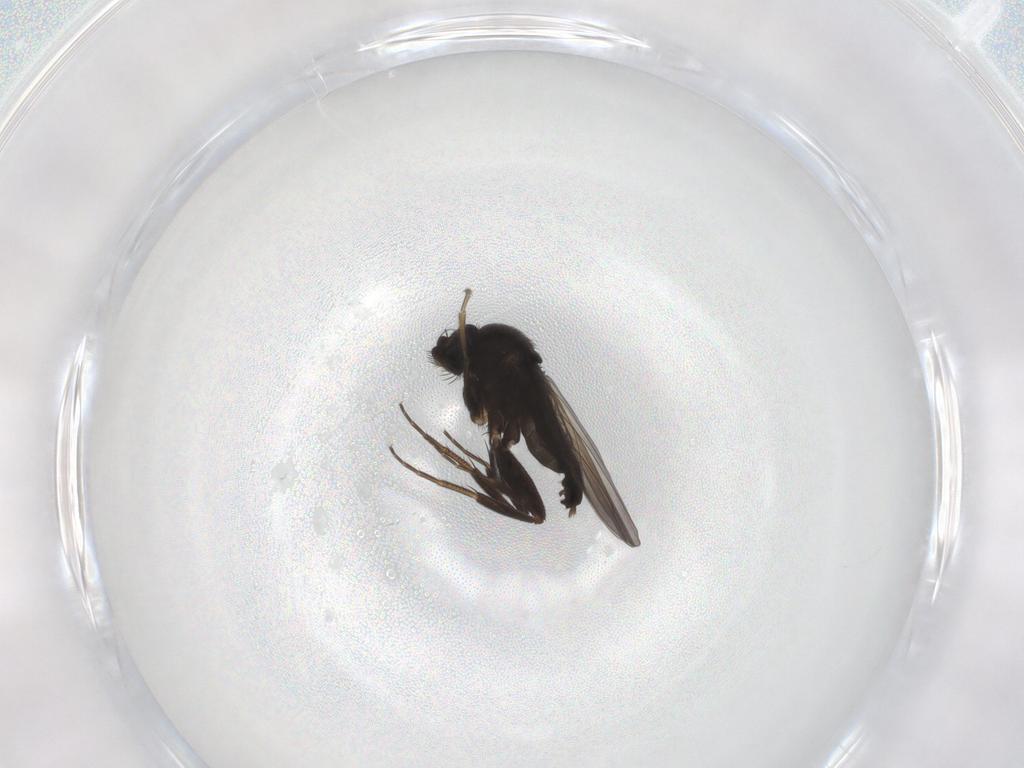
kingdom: Animalia
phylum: Arthropoda
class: Insecta
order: Diptera
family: Phoridae
